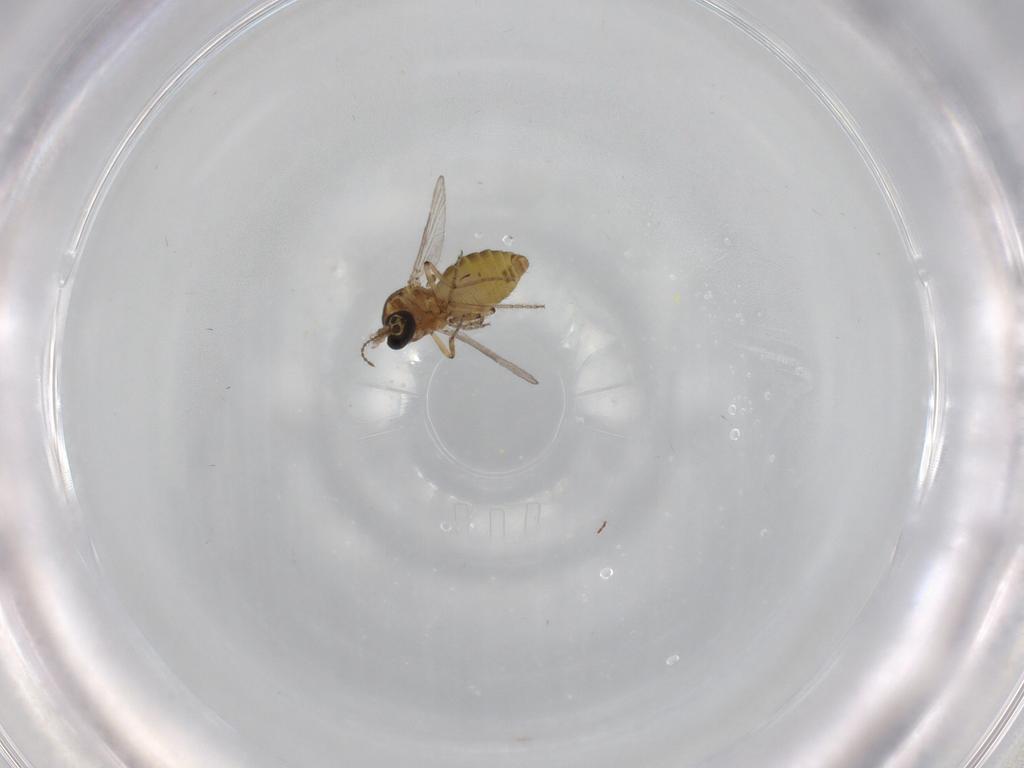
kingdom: Animalia
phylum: Arthropoda
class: Insecta
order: Diptera
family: Ceratopogonidae
